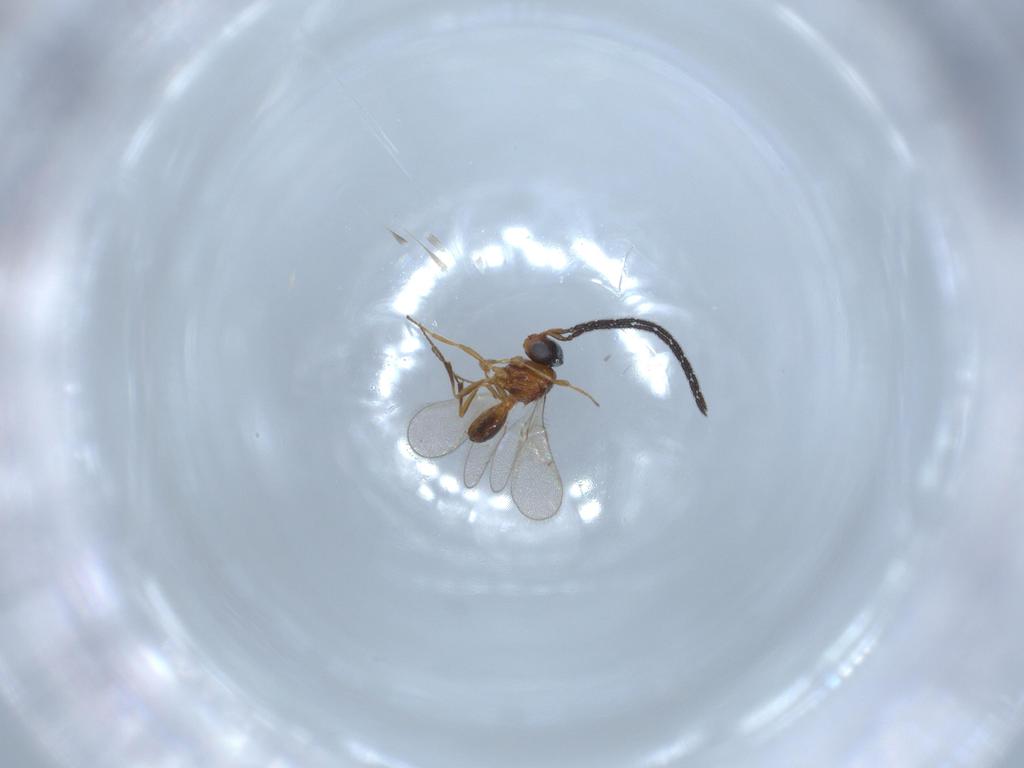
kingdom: Animalia
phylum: Arthropoda
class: Insecta
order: Hymenoptera
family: Scelionidae
